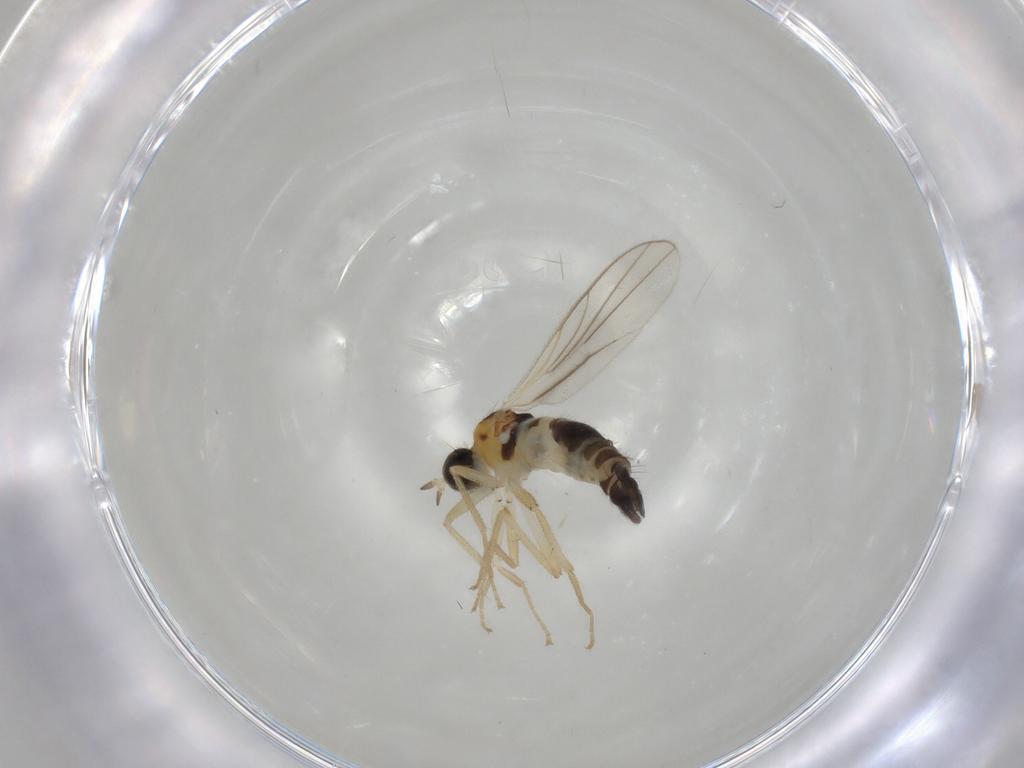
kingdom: Animalia
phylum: Arthropoda
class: Insecta
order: Diptera
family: Hybotidae
